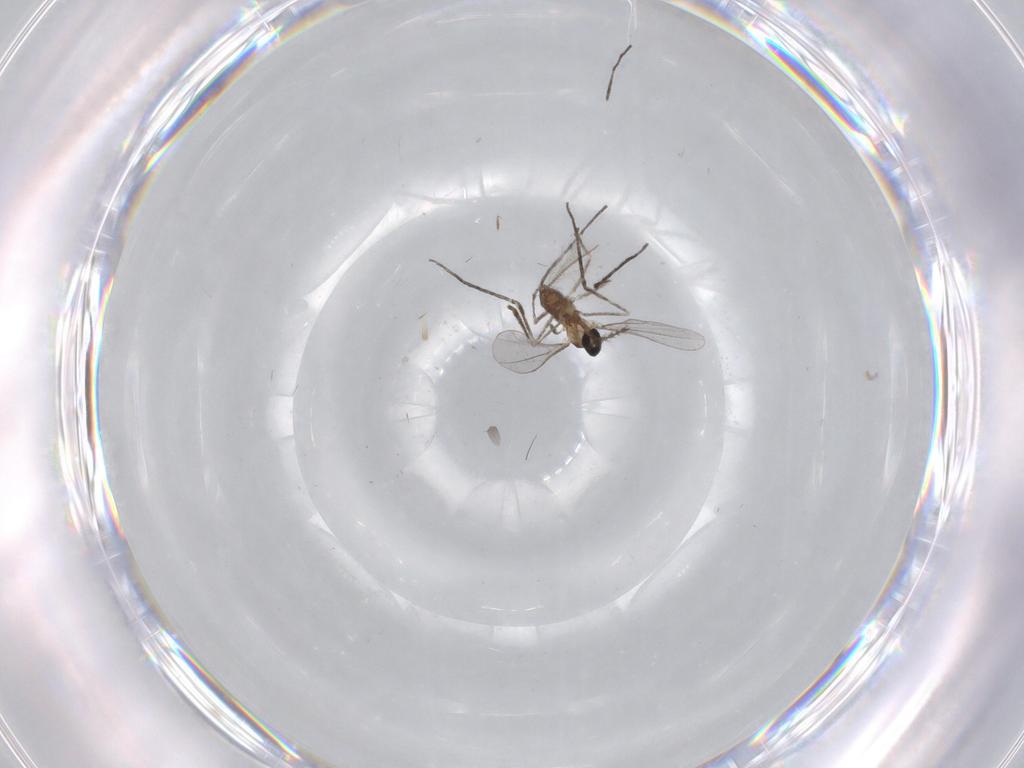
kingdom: Animalia
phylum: Arthropoda
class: Insecta
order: Diptera
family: Cecidomyiidae
